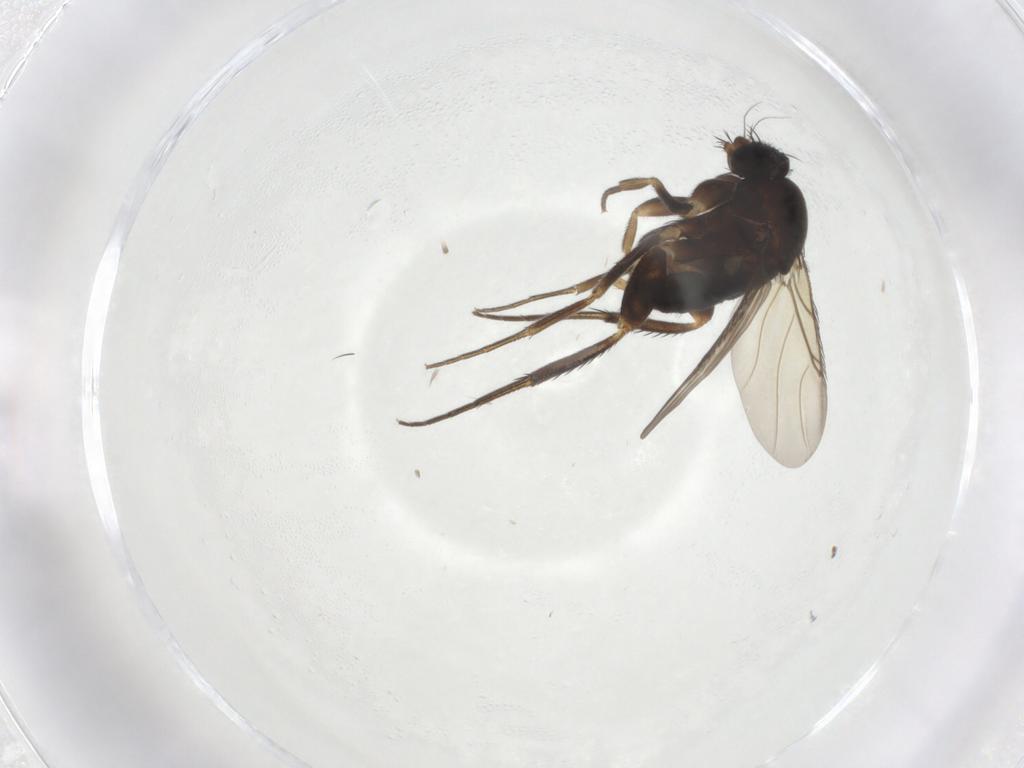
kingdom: Animalia
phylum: Arthropoda
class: Insecta
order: Diptera
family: Phoridae
